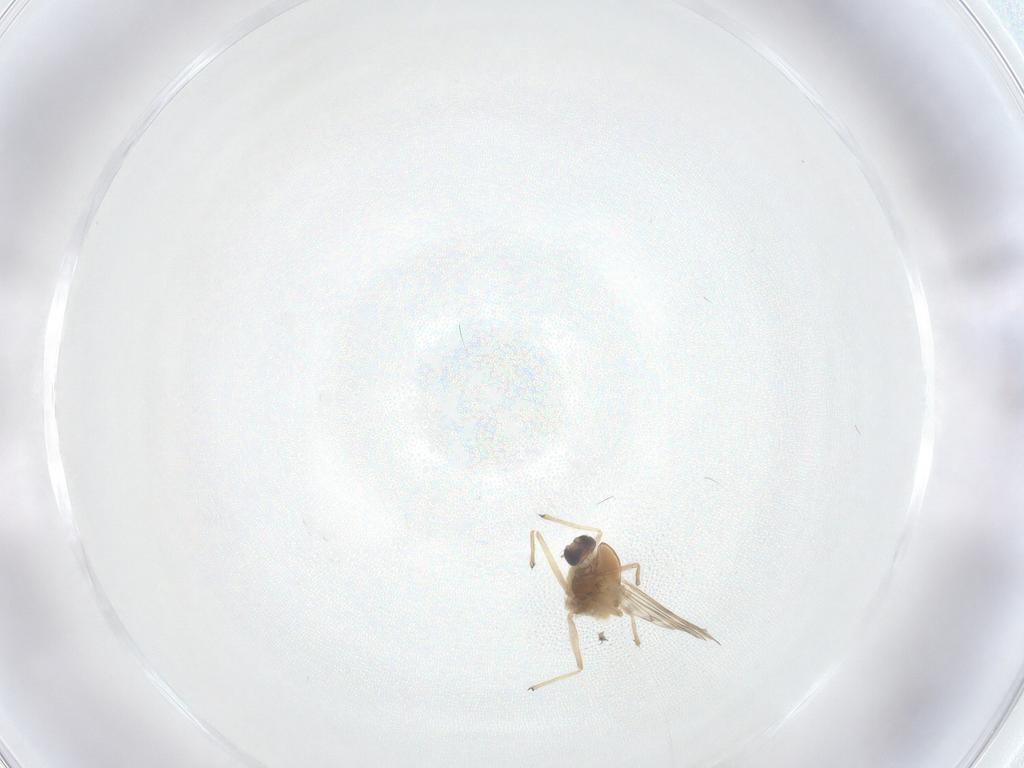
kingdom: Animalia
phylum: Arthropoda
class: Insecta
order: Diptera
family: Chironomidae
